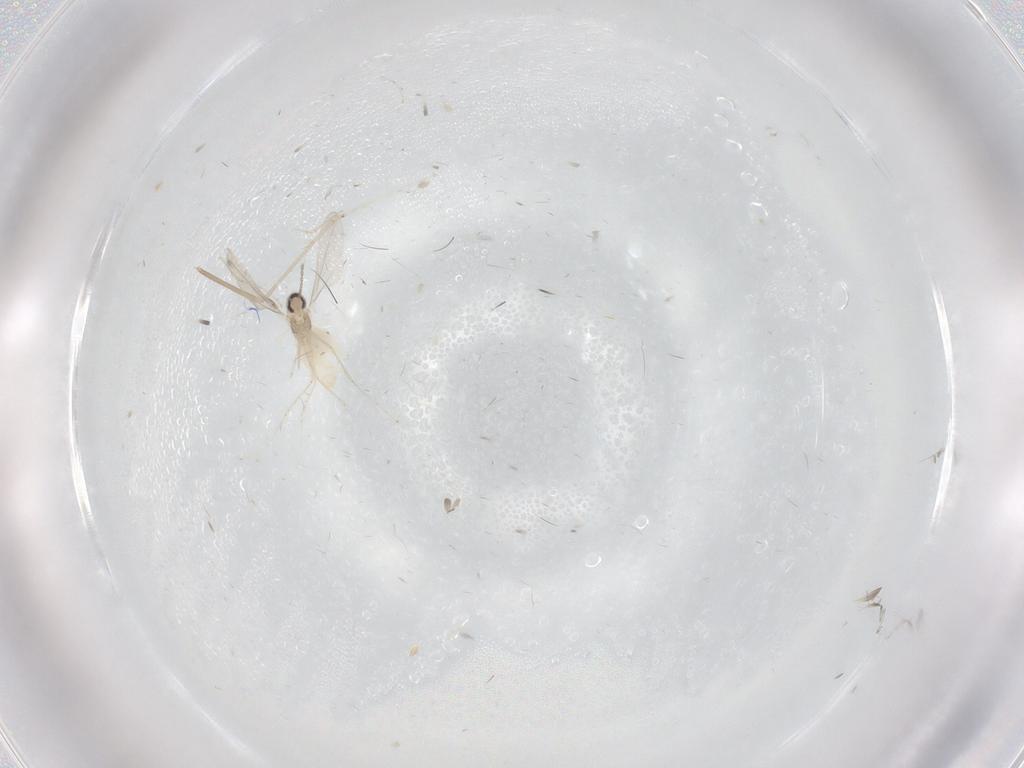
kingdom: Animalia
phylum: Arthropoda
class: Insecta
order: Diptera
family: Cecidomyiidae
